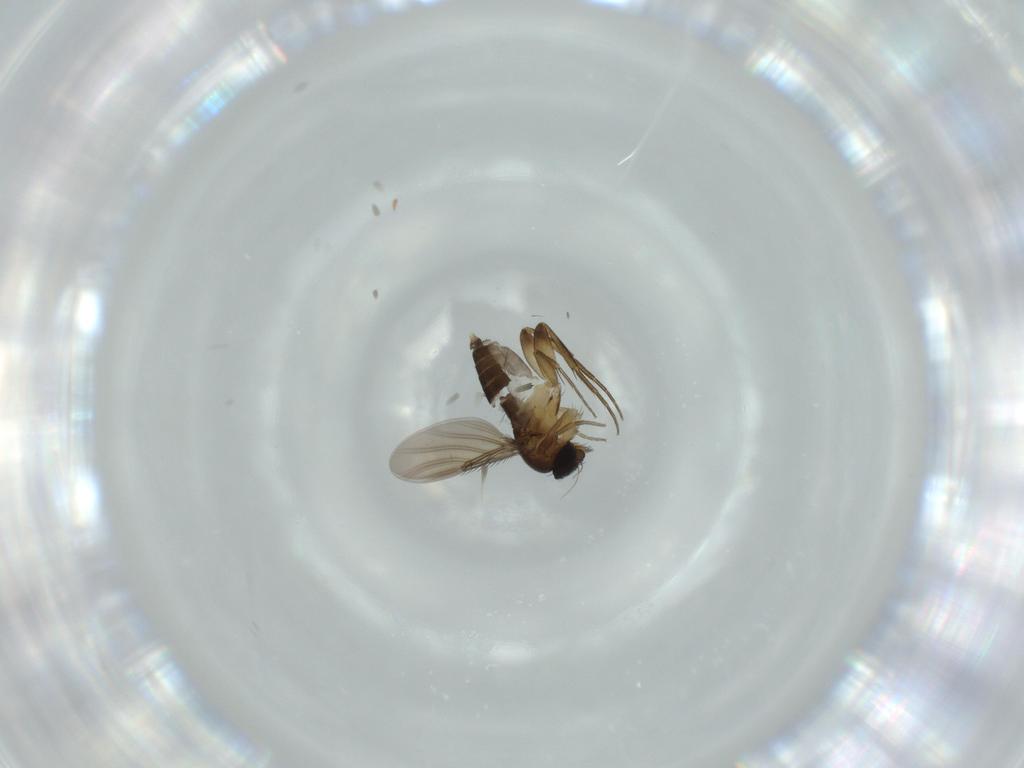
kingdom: Animalia
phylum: Arthropoda
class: Insecta
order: Diptera
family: Phoridae
